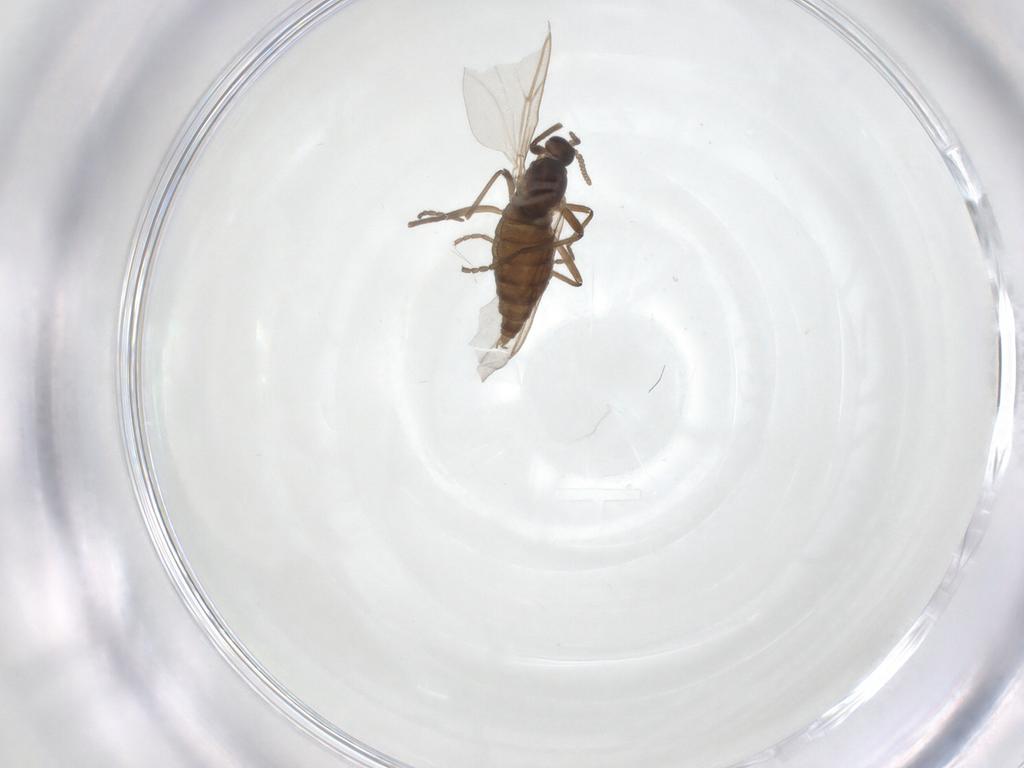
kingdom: Animalia
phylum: Arthropoda
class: Insecta
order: Diptera
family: Cecidomyiidae
